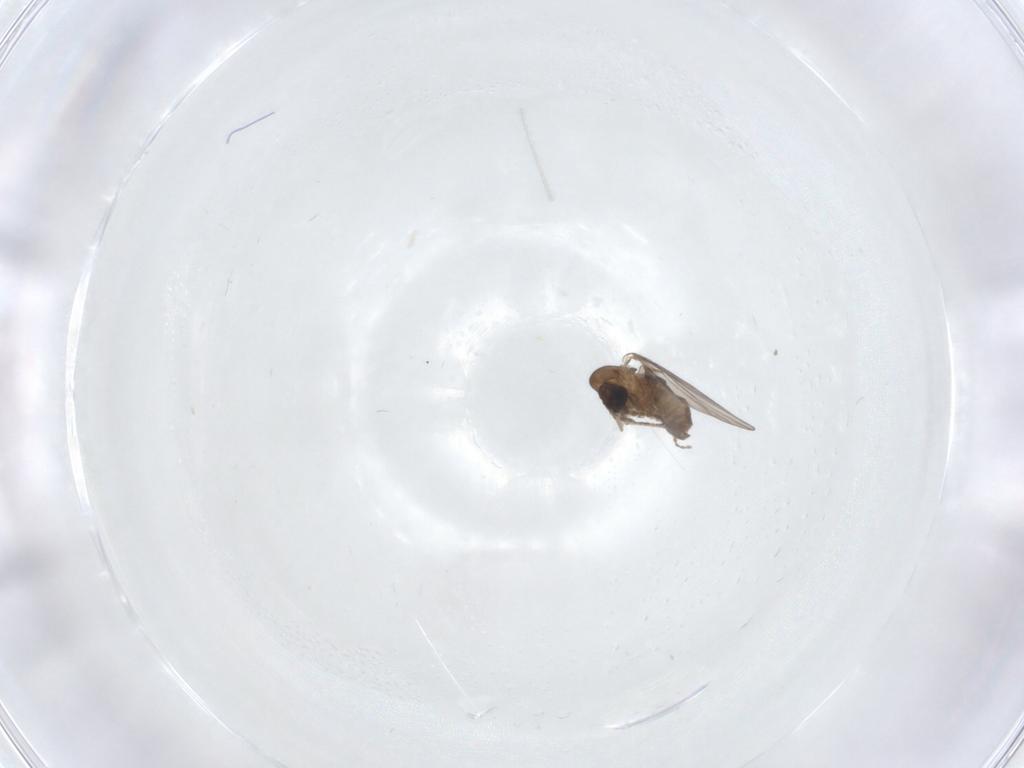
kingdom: Animalia
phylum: Arthropoda
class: Insecta
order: Diptera
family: Psychodidae
